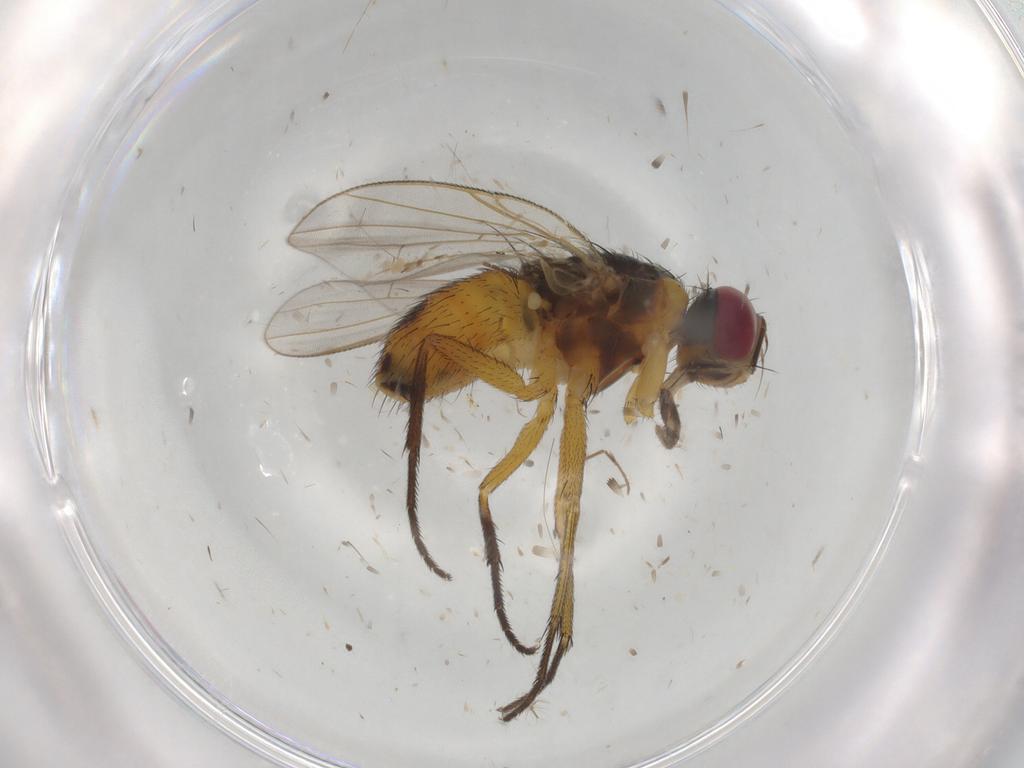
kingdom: Animalia
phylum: Arthropoda
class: Insecta
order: Diptera
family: Muscidae
